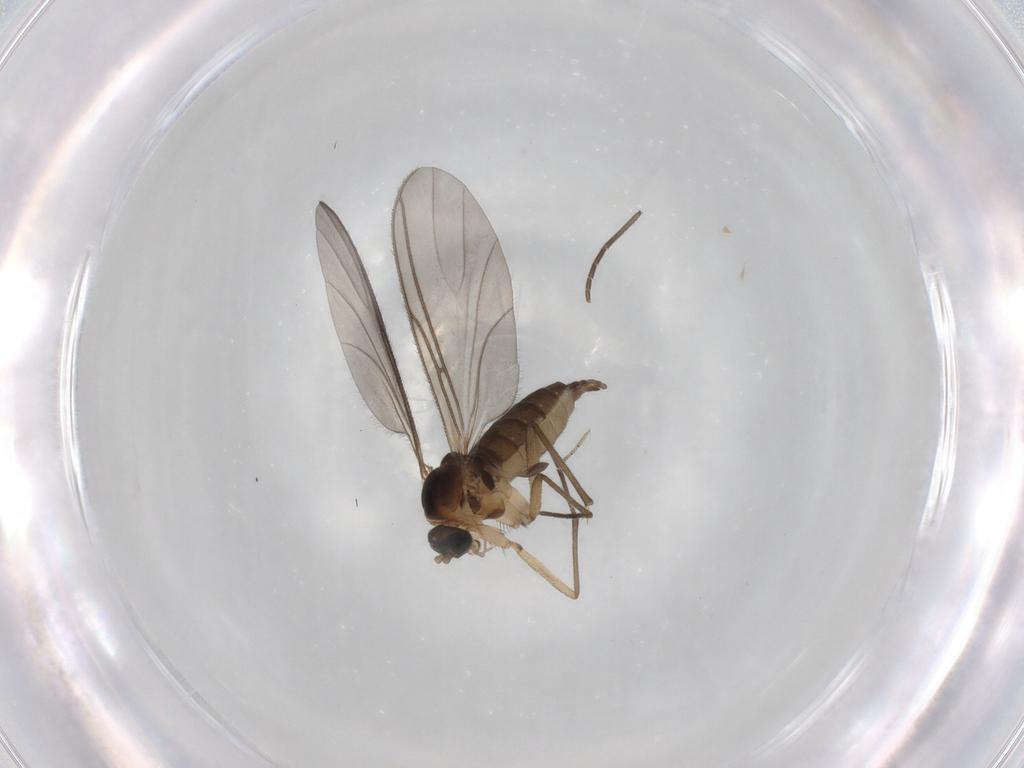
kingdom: Animalia
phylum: Arthropoda
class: Insecta
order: Diptera
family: Sciaridae
